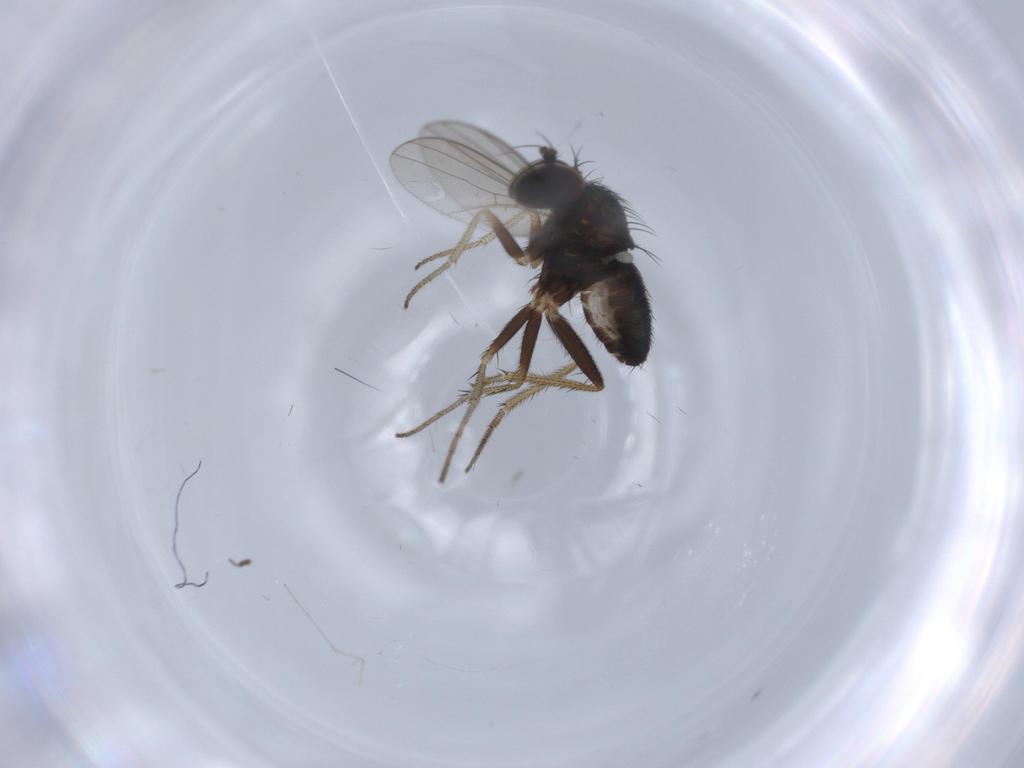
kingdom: Animalia
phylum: Arthropoda
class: Insecta
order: Diptera
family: Dolichopodidae
